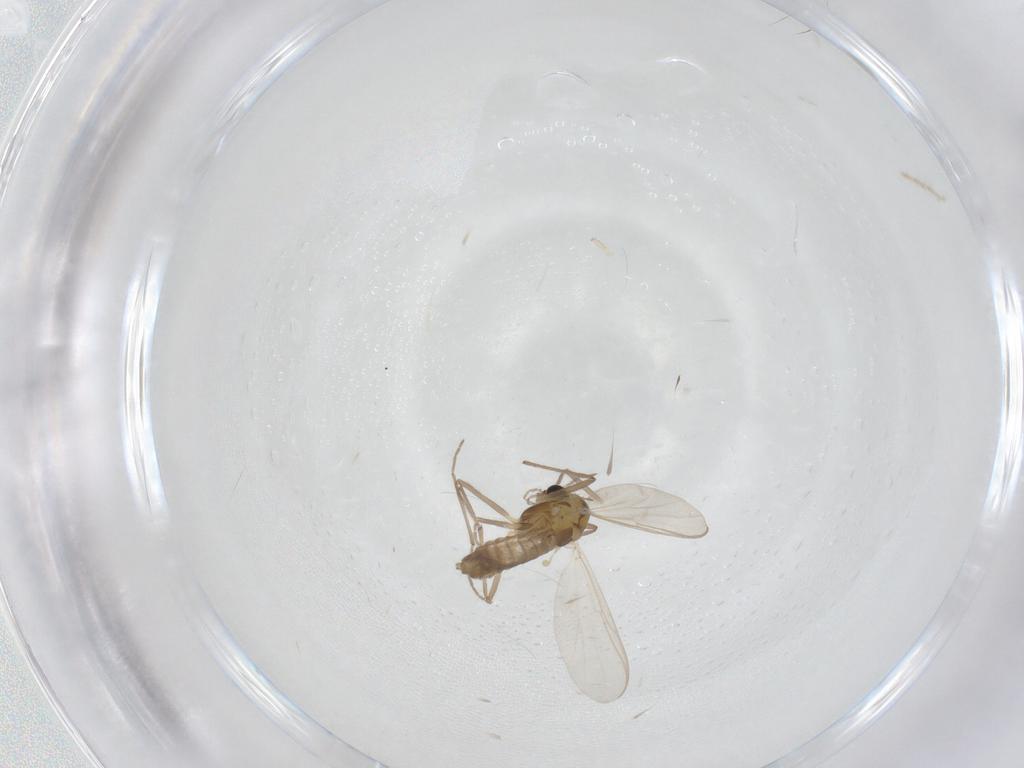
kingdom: Animalia
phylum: Arthropoda
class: Insecta
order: Diptera
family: Chironomidae
